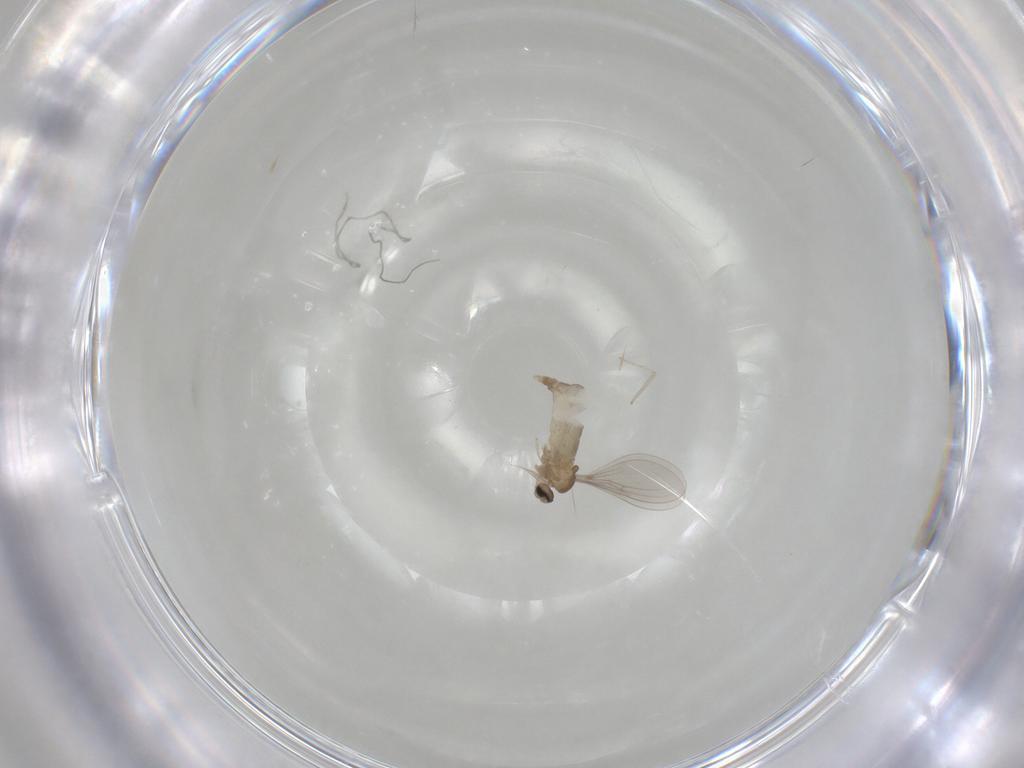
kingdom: Animalia
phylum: Arthropoda
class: Insecta
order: Diptera
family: Cecidomyiidae
